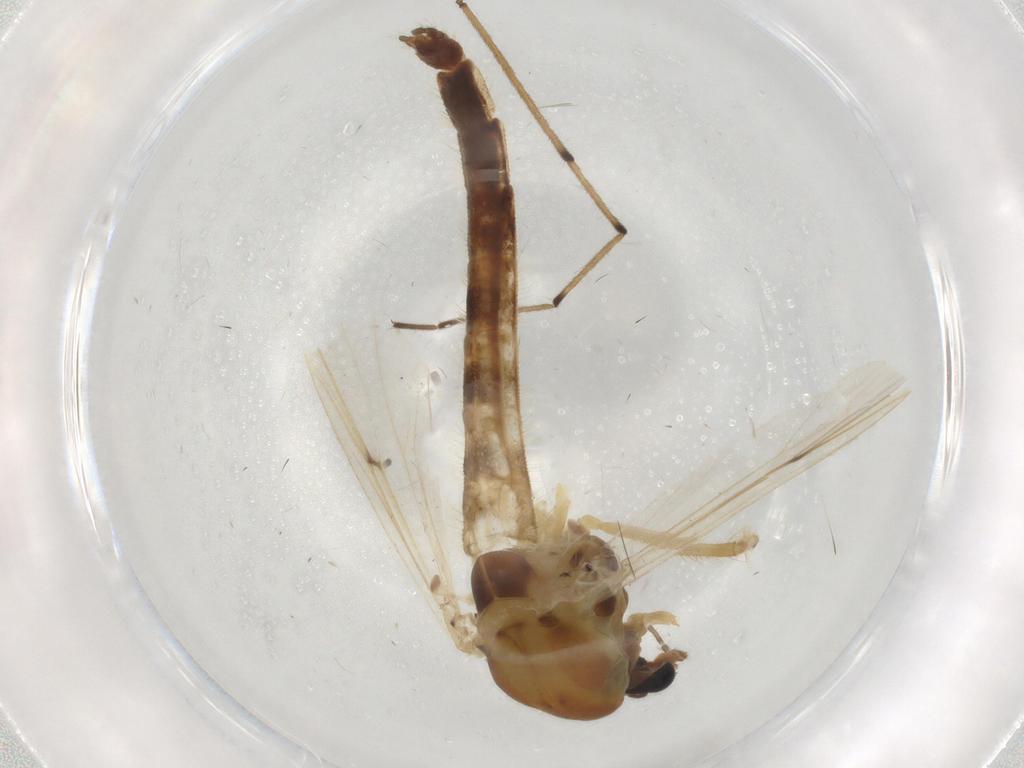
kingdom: Animalia
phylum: Arthropoda
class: Insecta
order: Diptera
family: Chironomidae
